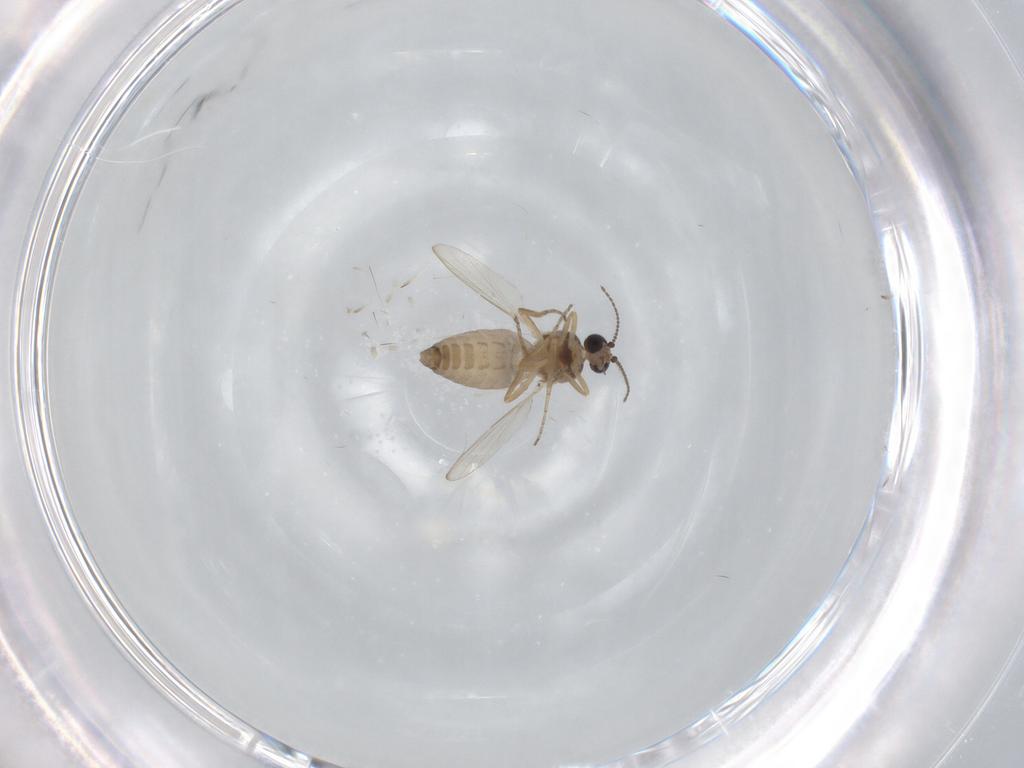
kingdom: Animalia
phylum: Arthropoda
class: Insecta
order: Diptera
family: Ceratopogonidae
